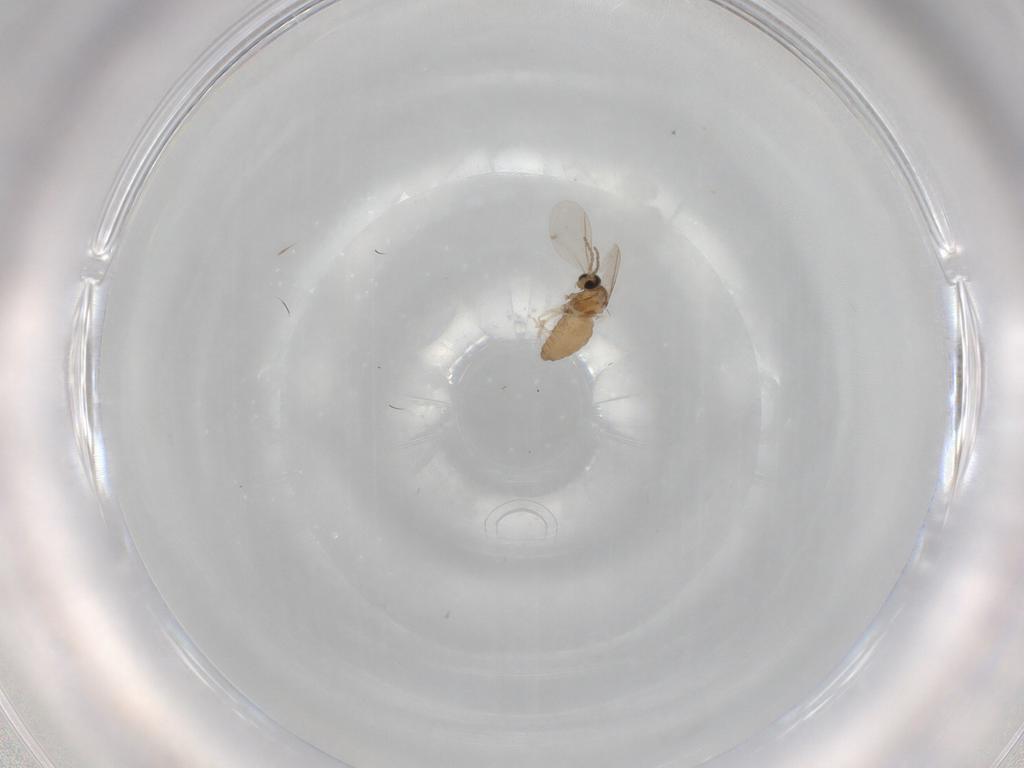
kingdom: Animalia
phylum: Arthropoda
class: Insecta
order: Diptera
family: Cecidomyiidae
